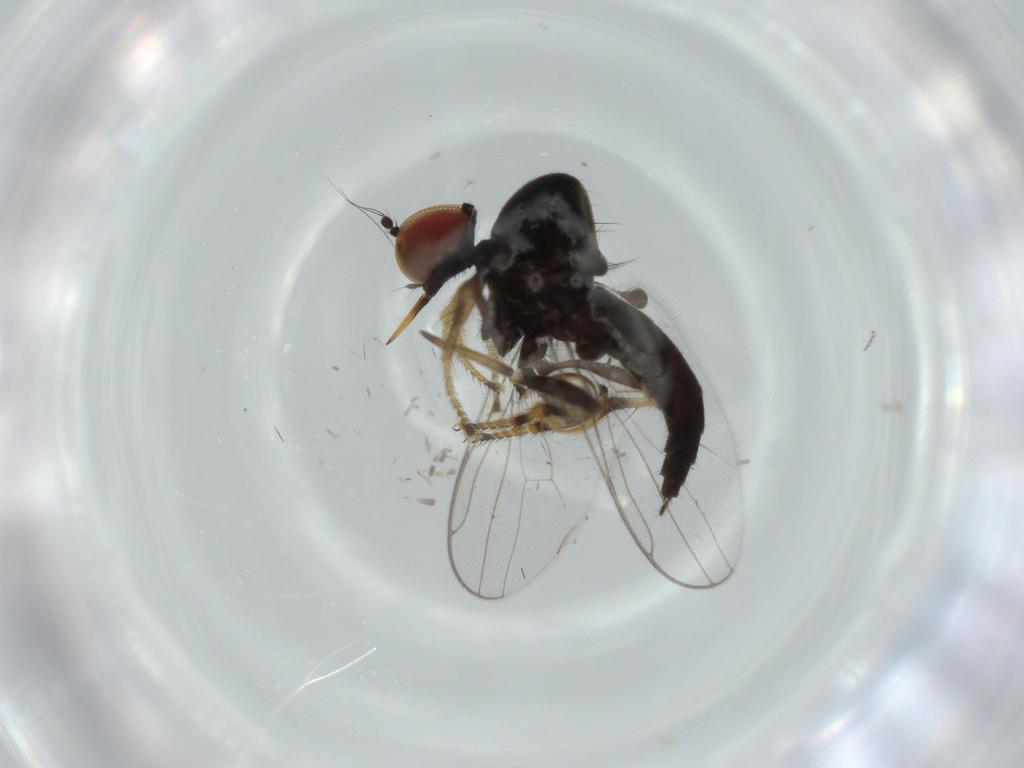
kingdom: Animalia
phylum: Arthropoda
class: Insecta
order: Diptera
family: Hybotidae
